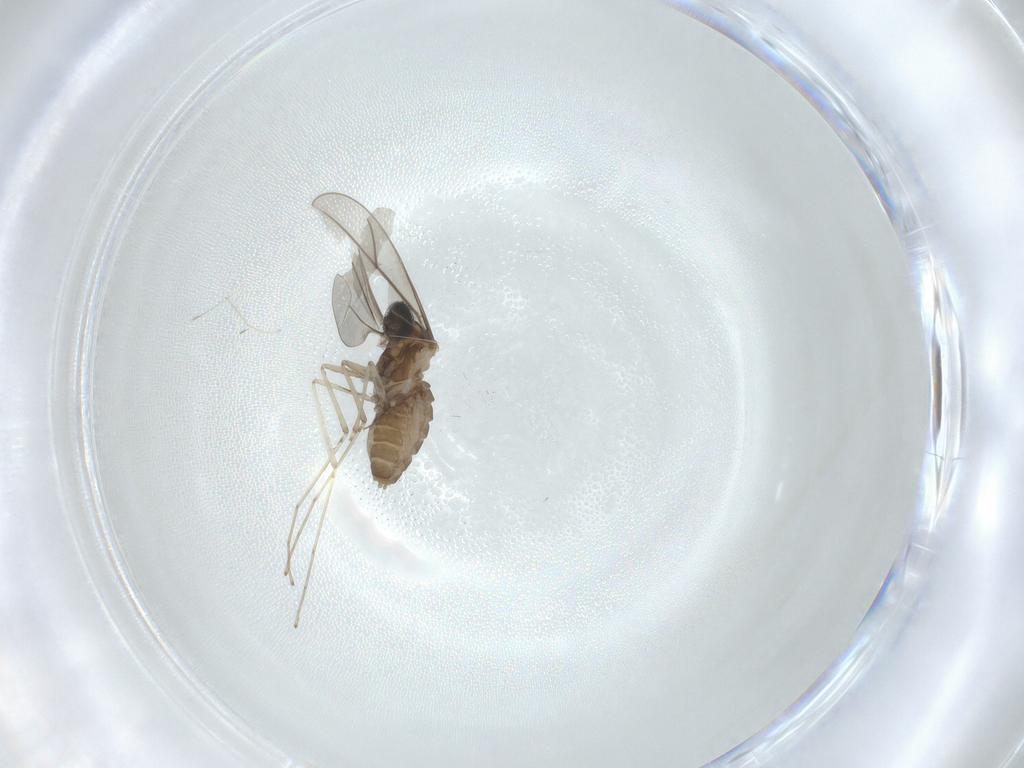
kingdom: Animalia
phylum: Arthropoda
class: Insecta
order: Diptera
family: Cecidomyiidae
